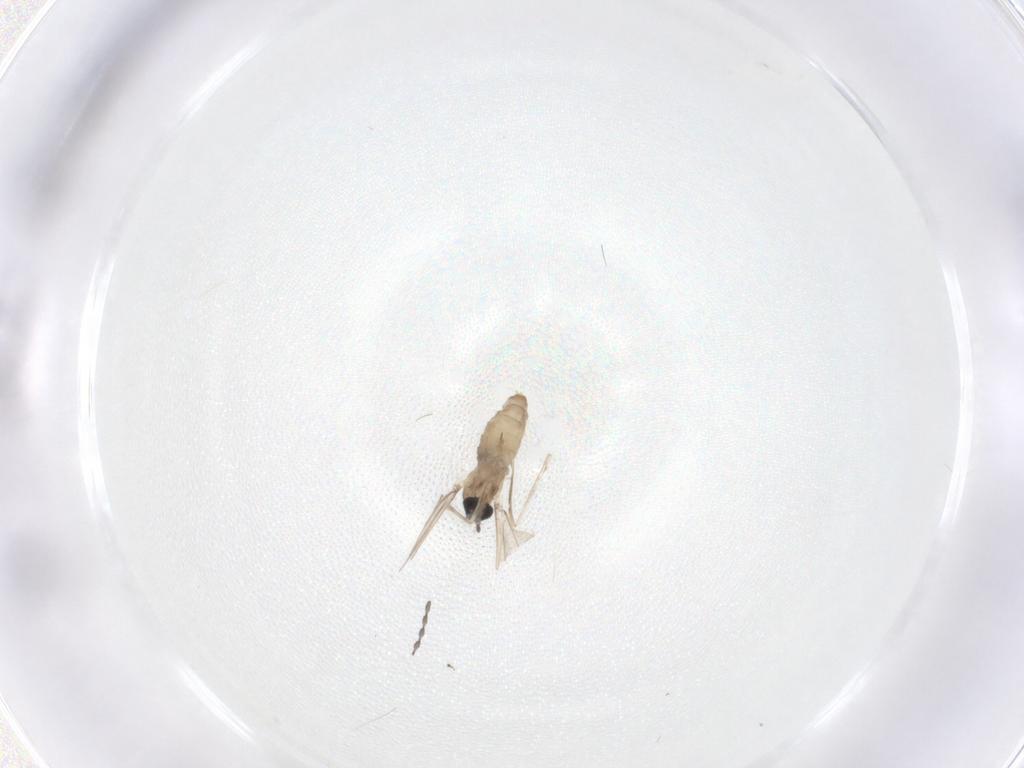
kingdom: Animalia
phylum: Arthropoda
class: Insecta
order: Diptera
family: Cecidomyiidae
